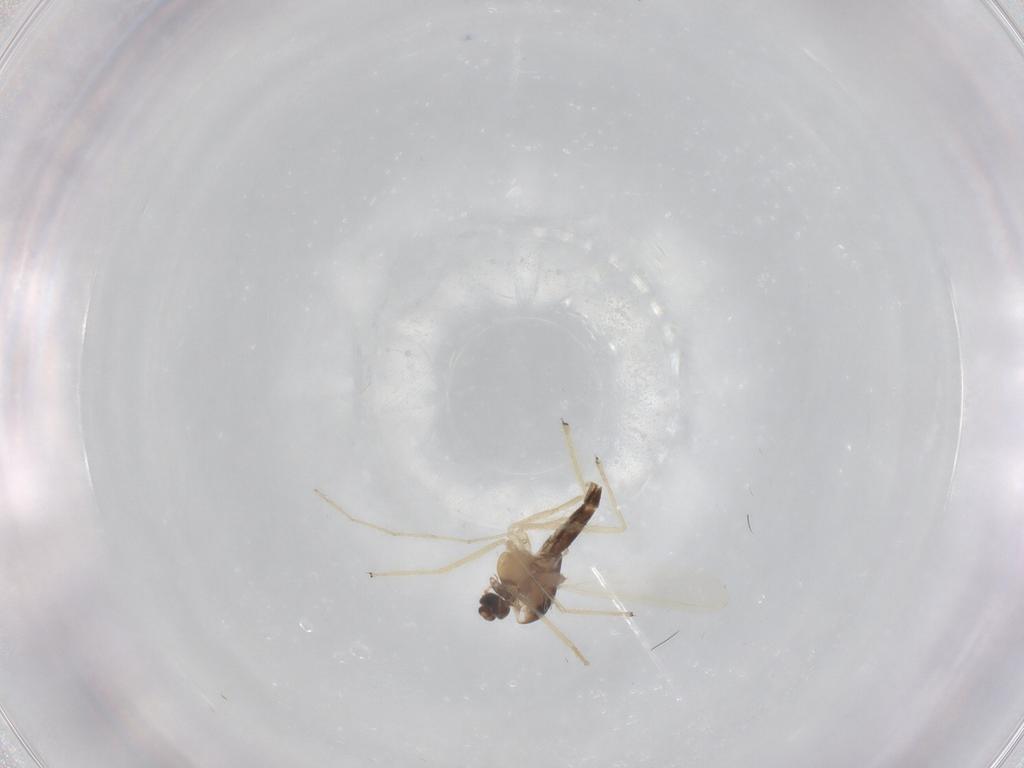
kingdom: Animalia
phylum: Arthropoda
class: Insecta
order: Diptera
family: Chironomidae
